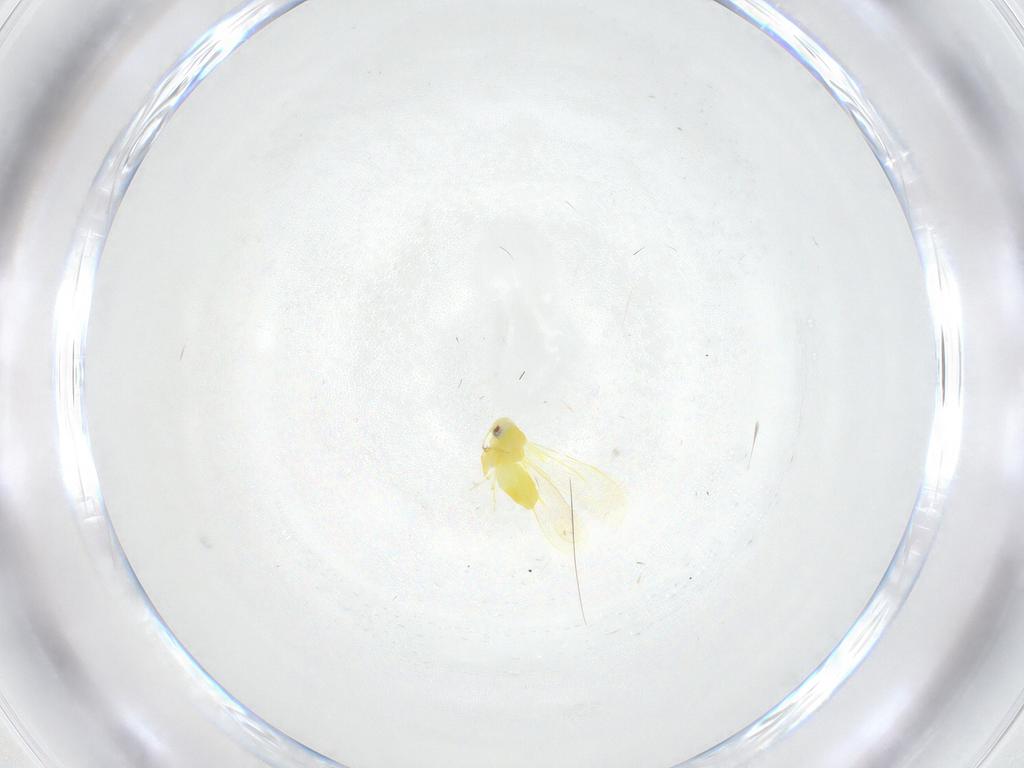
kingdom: Animalia
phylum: Arthropoda
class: Insecta
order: Hemiptera
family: Aleyrodidae
